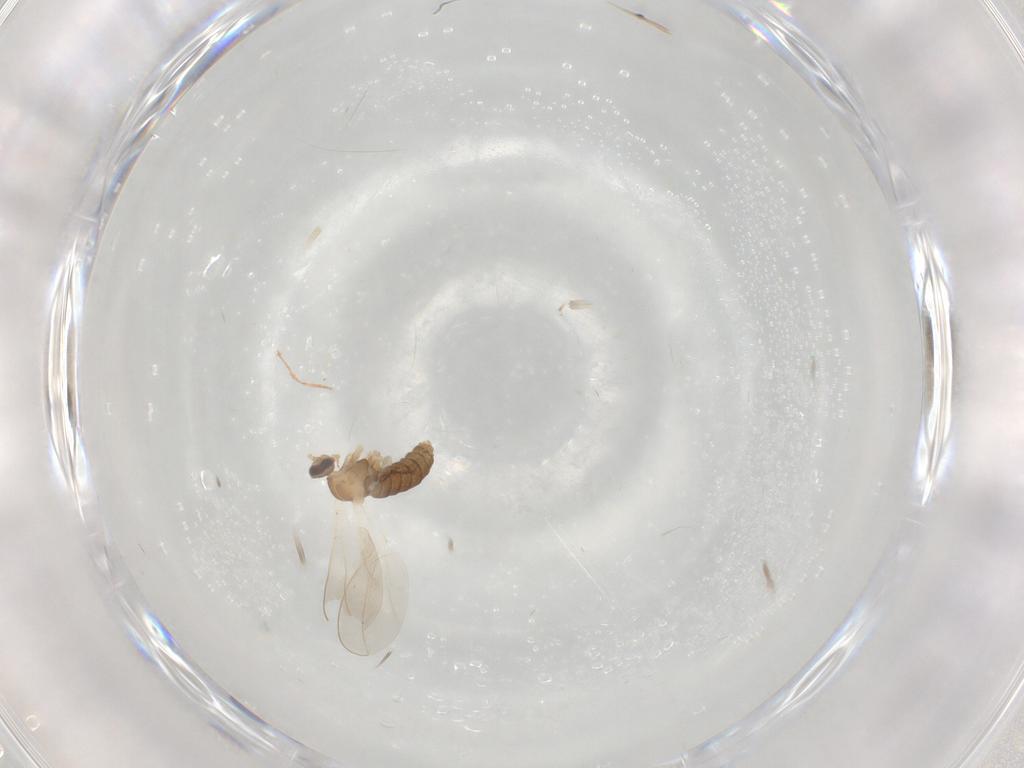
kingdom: Animalia
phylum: Arthropoda
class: Insecta
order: Diptera
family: Cecidomyiidae
